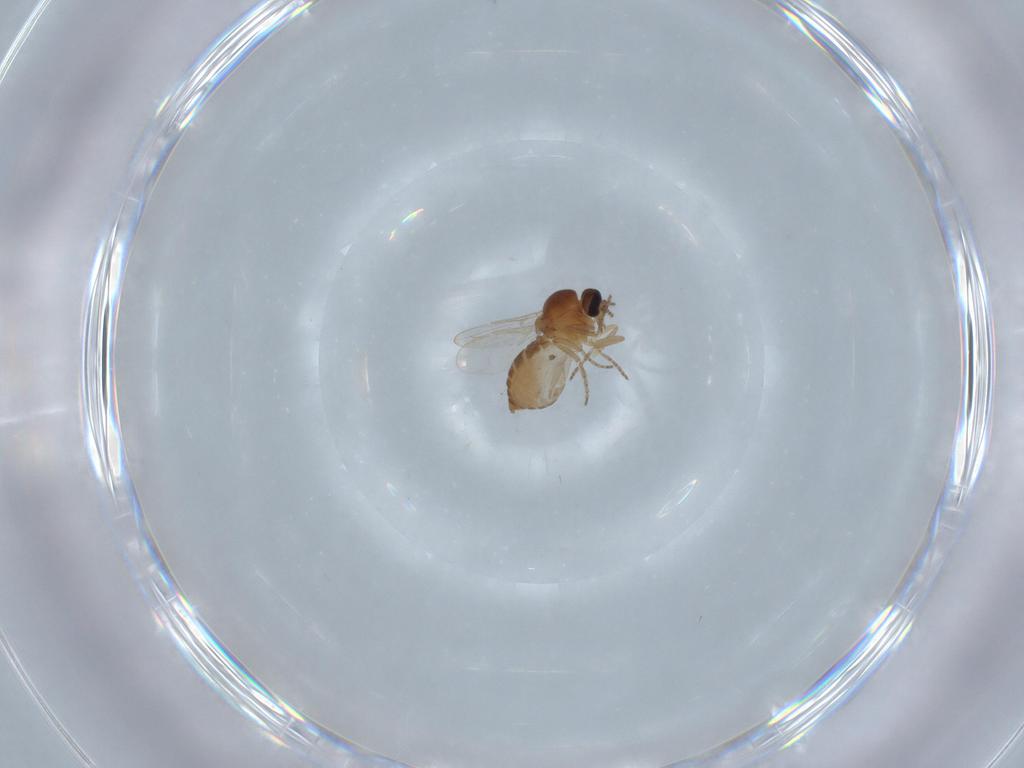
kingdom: Animalia
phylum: Arthropoda
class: Insecta
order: Diptera
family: Ceratopogonidae
